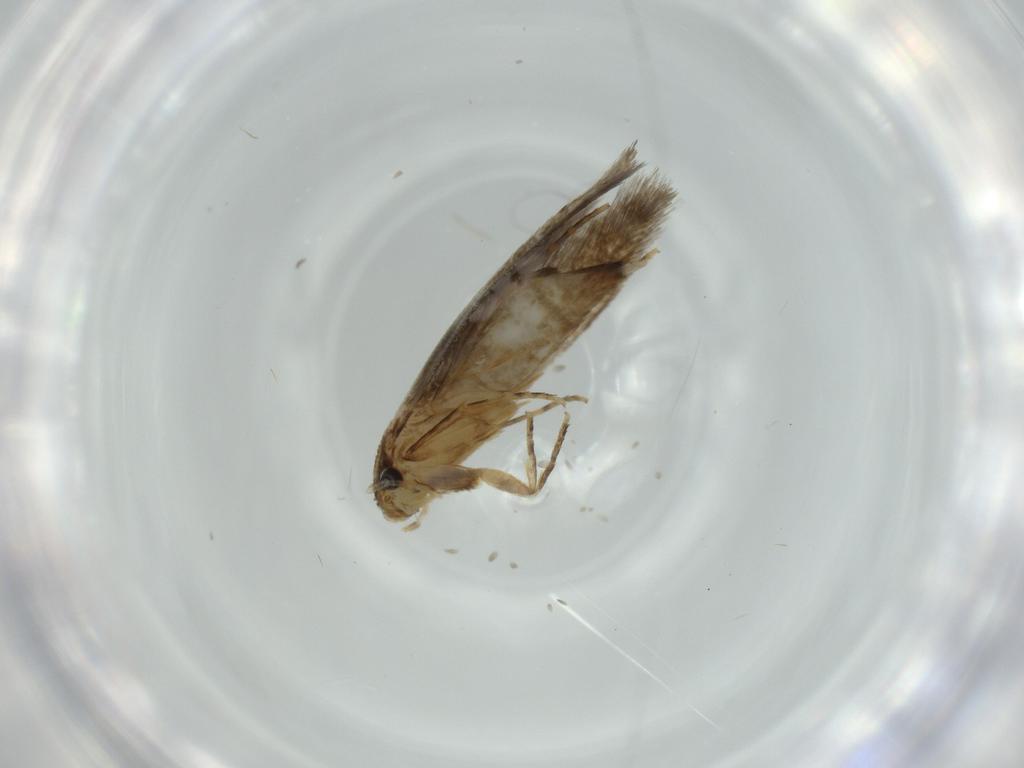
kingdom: Animalia
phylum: Arthropoda
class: Insecta
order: Lepidoptera
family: Tineidae
